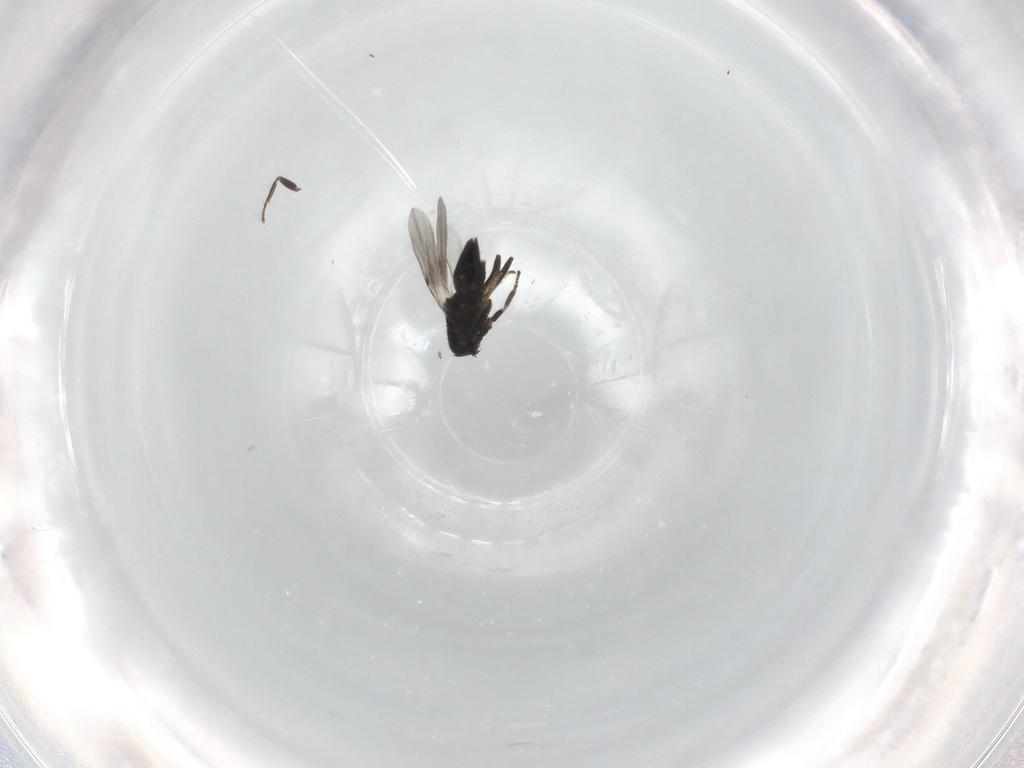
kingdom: Animalia
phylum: Arthropoda
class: Insecta
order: Hymenoptera
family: Encyrtidae
